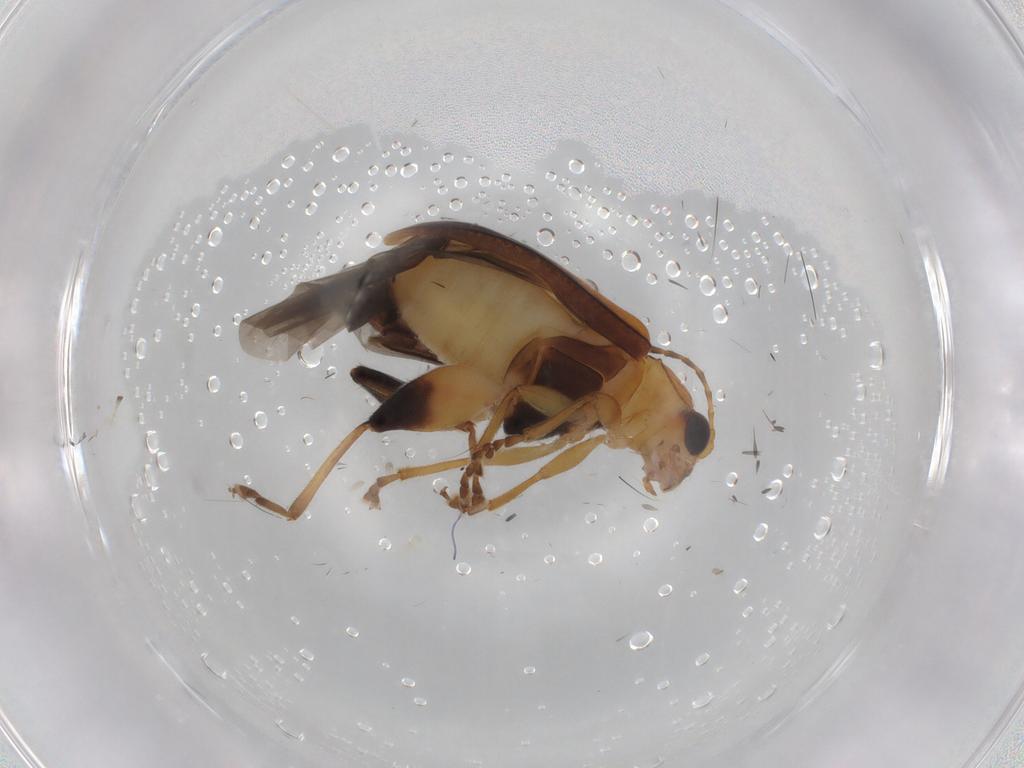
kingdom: Animalia
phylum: Arthropoda
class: Insecta
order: Coleoptera
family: Chrysomelidae
